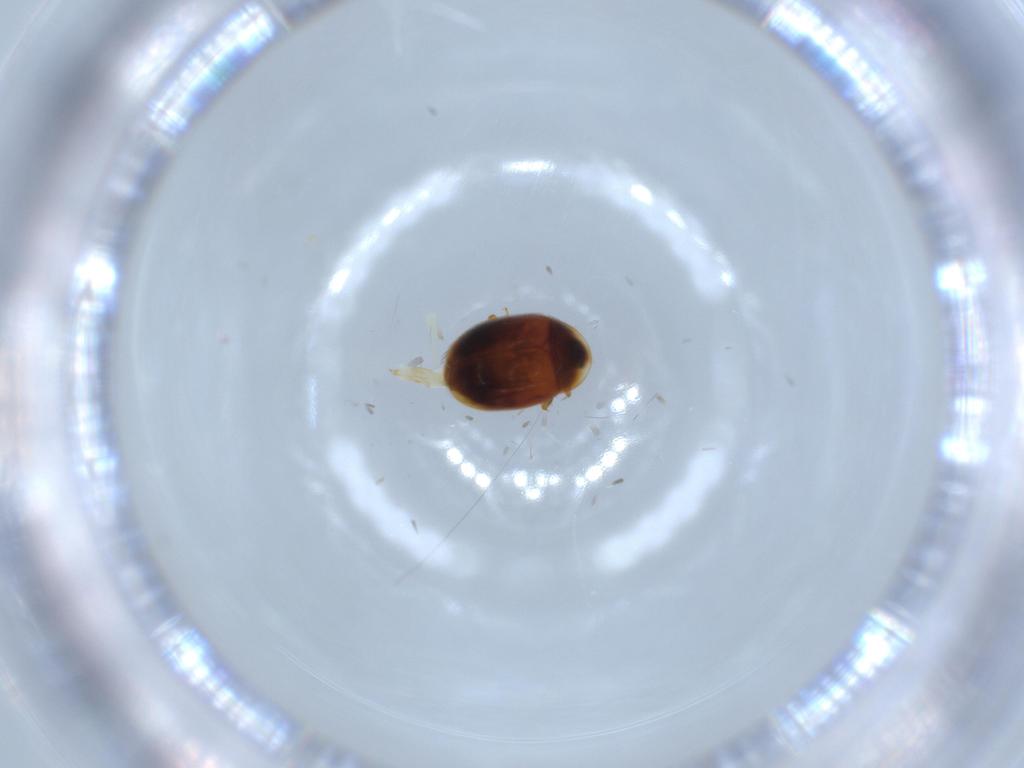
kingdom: Animalia
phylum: Arthropoda
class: Insecta
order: Coleoptera
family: Corylophidae
